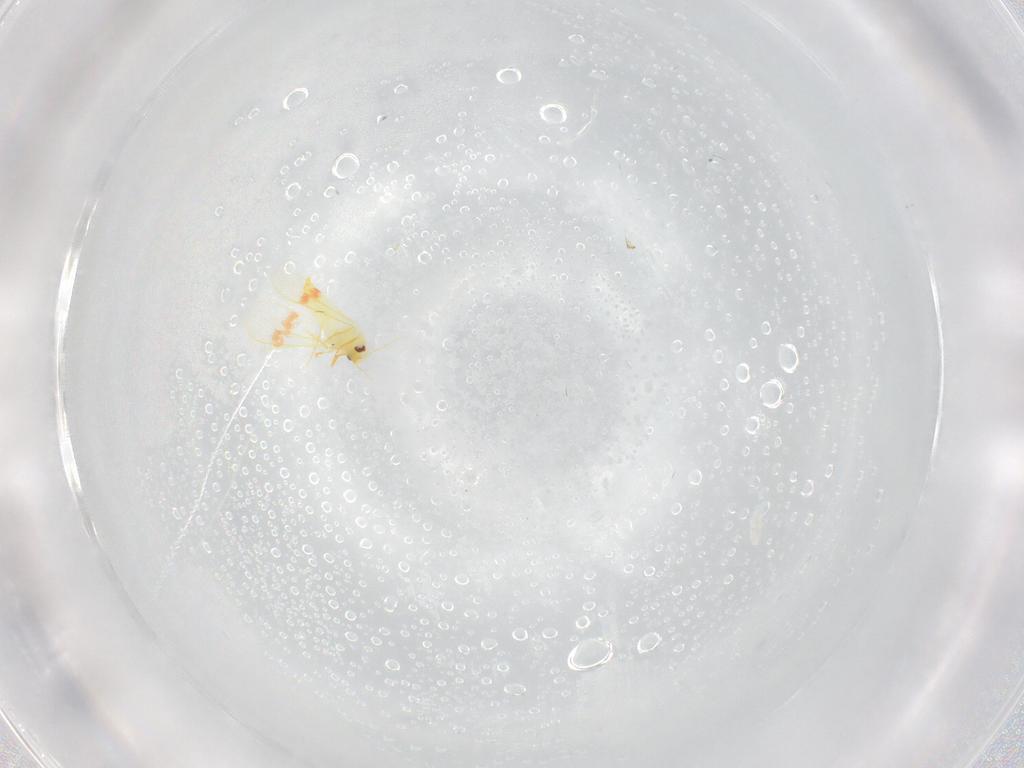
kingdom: Animalia
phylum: Arthropoda
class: Insecta
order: Hemiptera
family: Aleyrodidae
